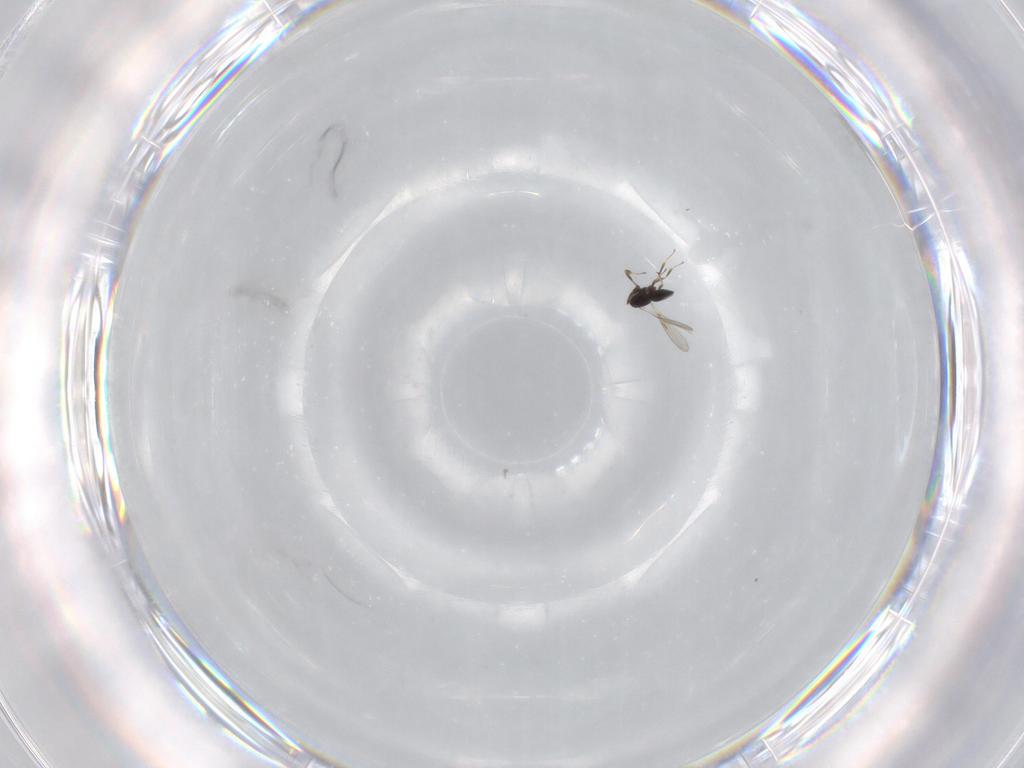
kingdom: Animalia
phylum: Arthropoda
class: Insecta
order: Hymenoptera
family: Scelionidae
